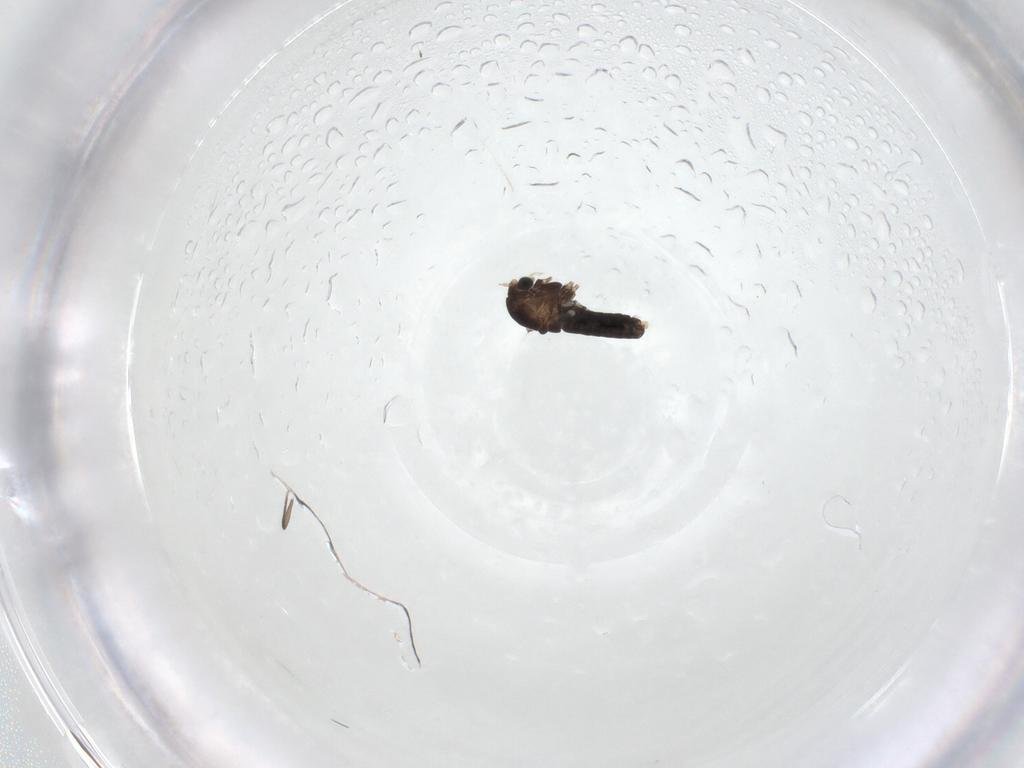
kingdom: Animalia
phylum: Arthropoda
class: Insecta
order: Diptera
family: Chironomidae
